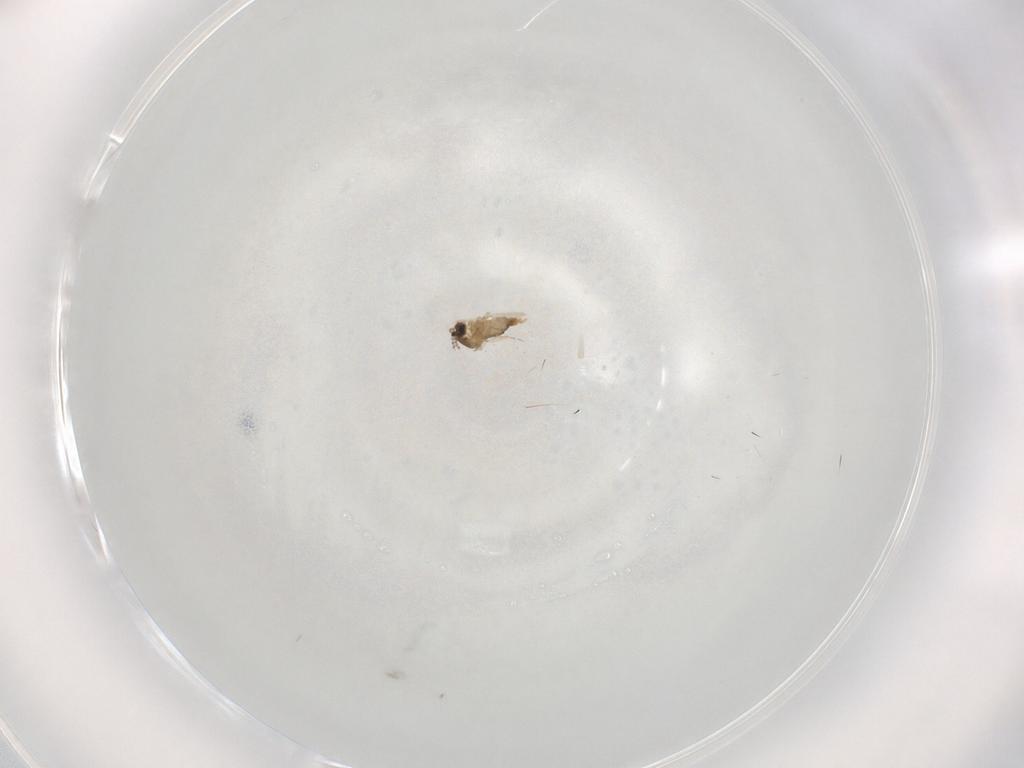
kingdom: Animalia
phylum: Arthropoda
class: Insecta
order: Diptera
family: Cecidomyiidae
